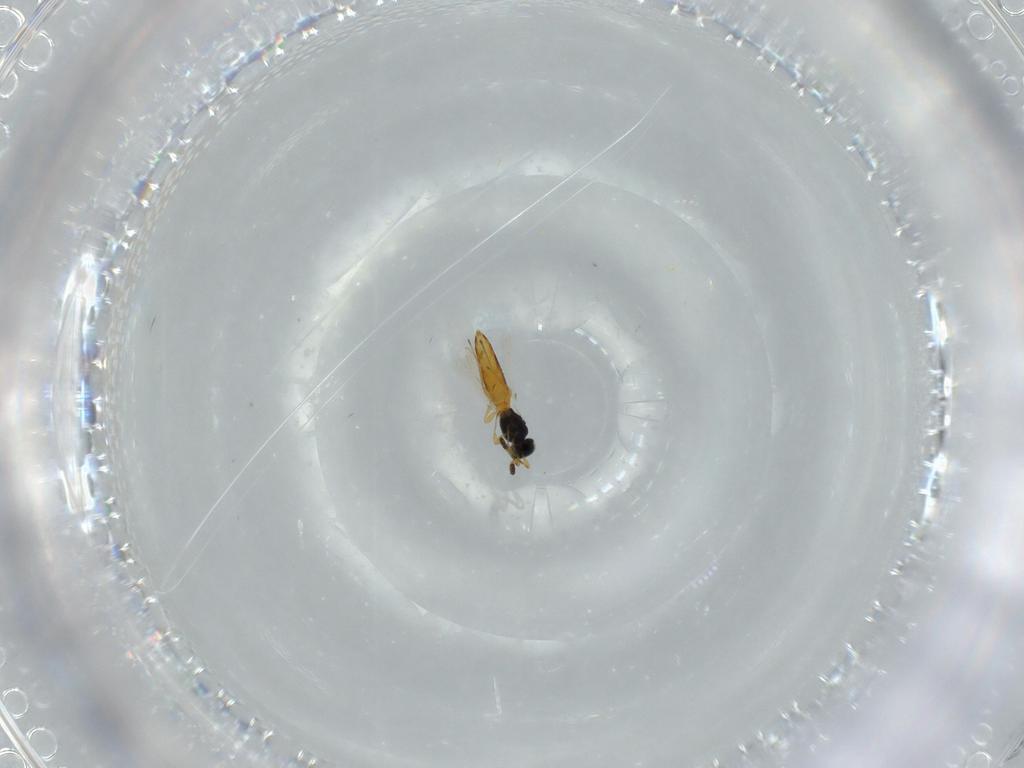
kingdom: Animalia
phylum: Arthropoda
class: Insecta
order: Hymenoptera
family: Scelionidae
